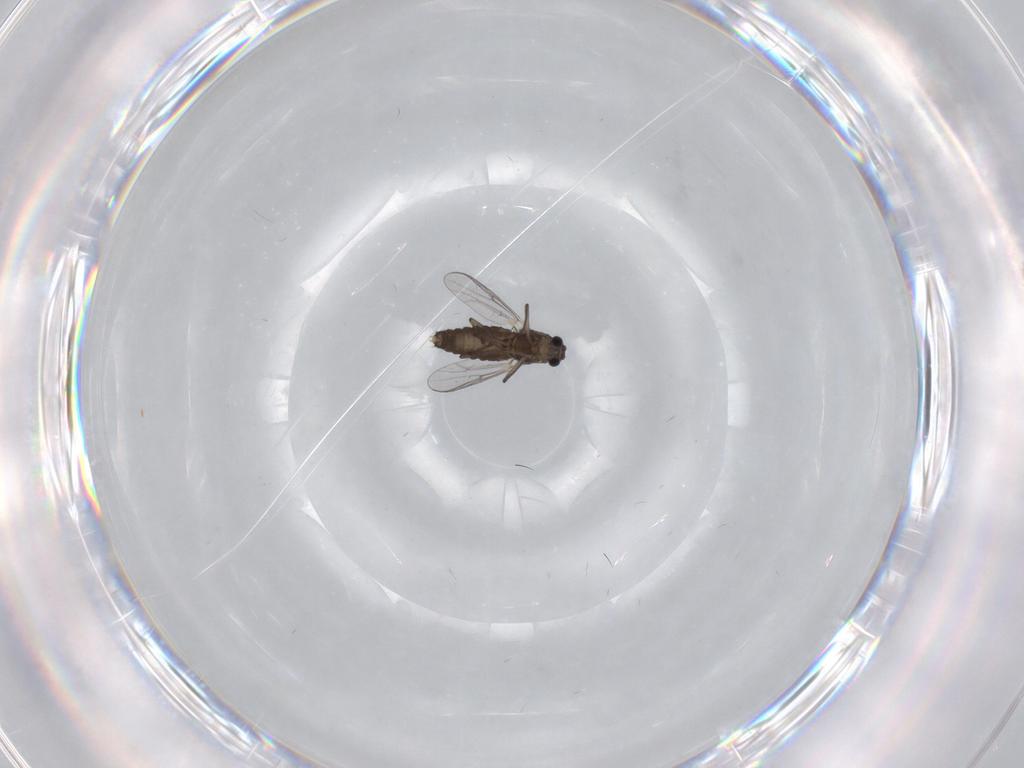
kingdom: Animalia
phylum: Arthropoda
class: Insecta
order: Diptera
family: Chironomidae
